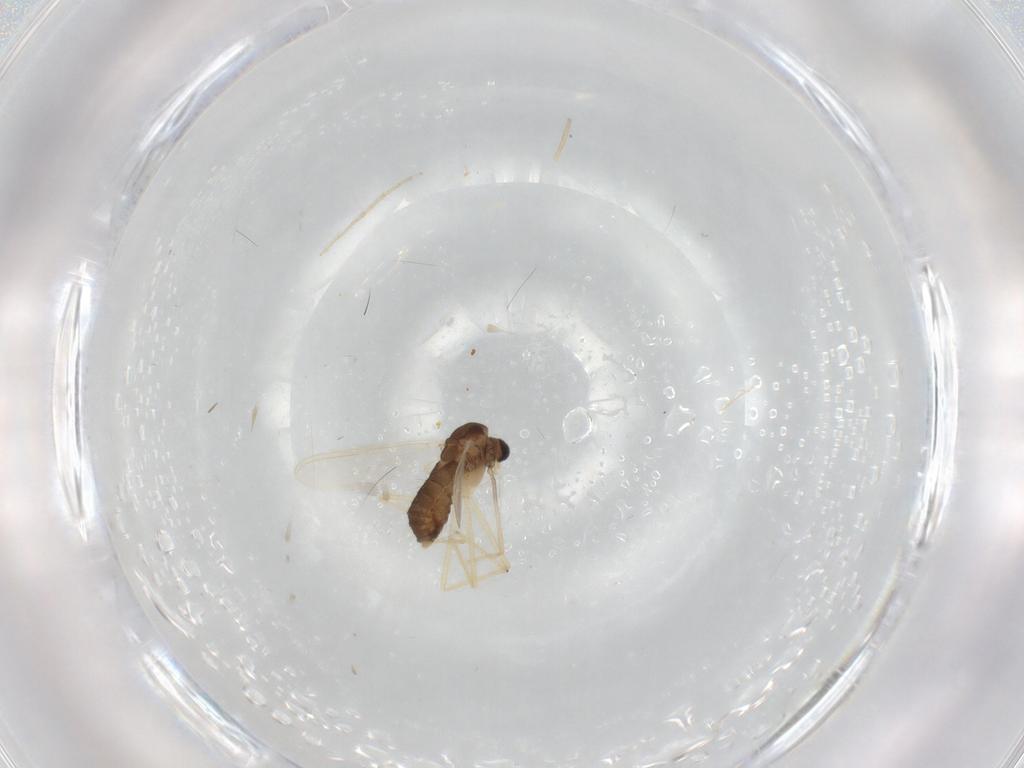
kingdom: Animalia
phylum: Arthropoda
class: Insecta
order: Diptera
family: Chironomidae
